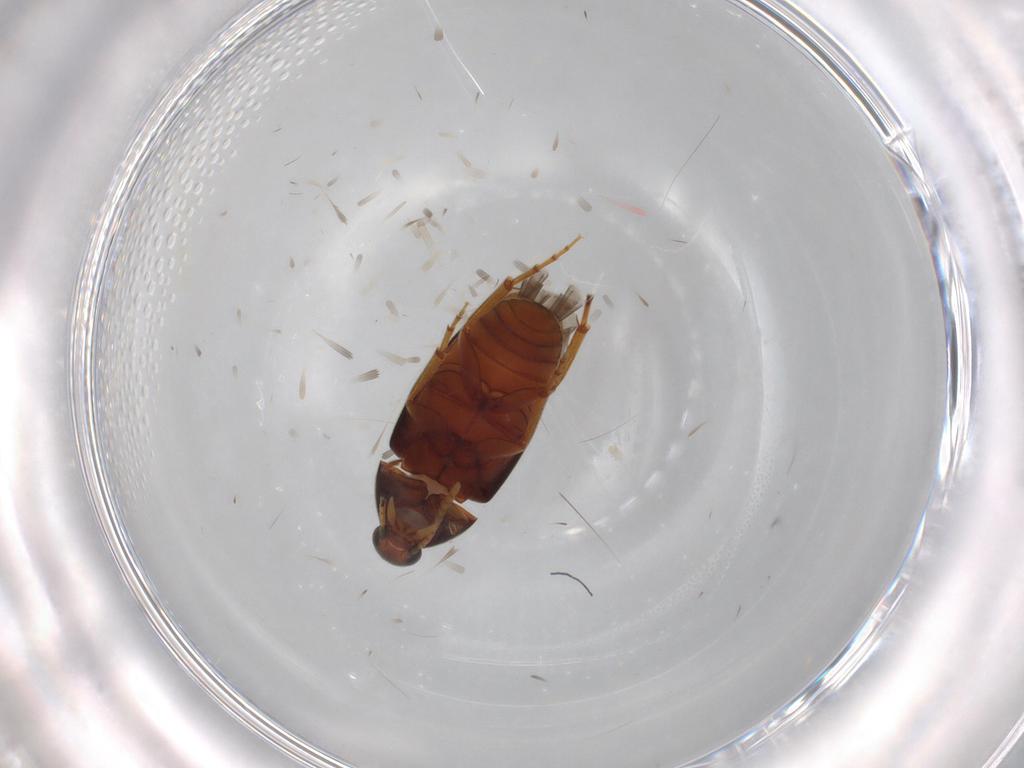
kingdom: Animalia
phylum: Arthropoda
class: Insecta
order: Coleoptera
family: Scraptiidae
